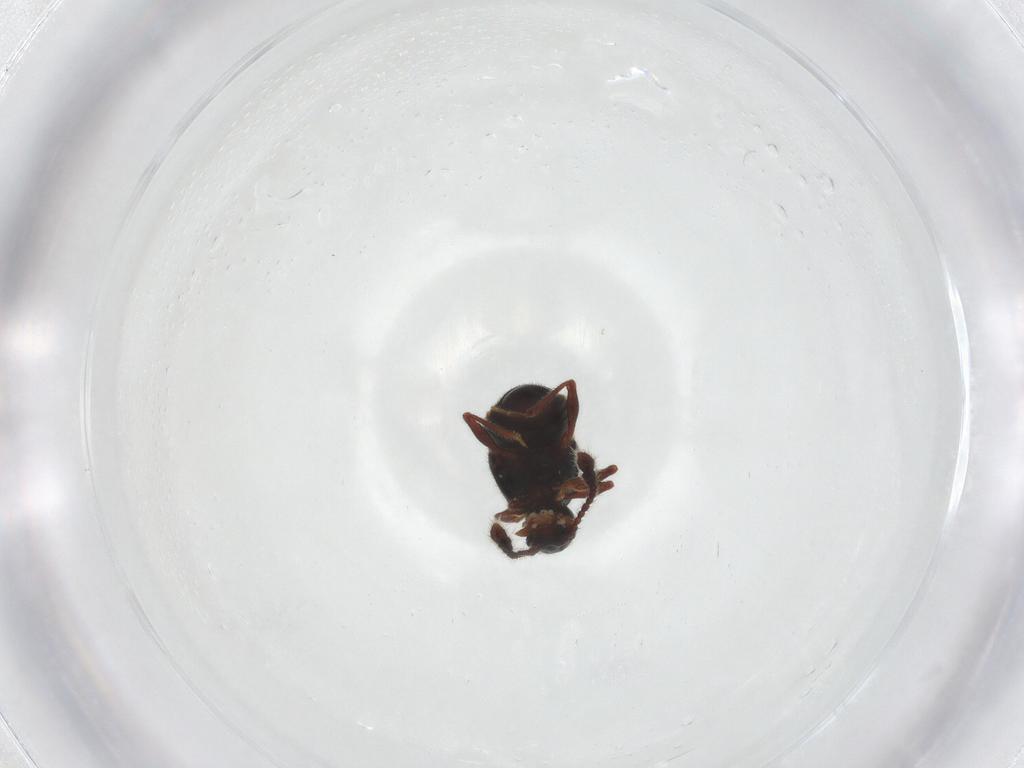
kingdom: Animalia
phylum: Arthropoda
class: Insecta
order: Coleoptera
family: Staphylinidae
